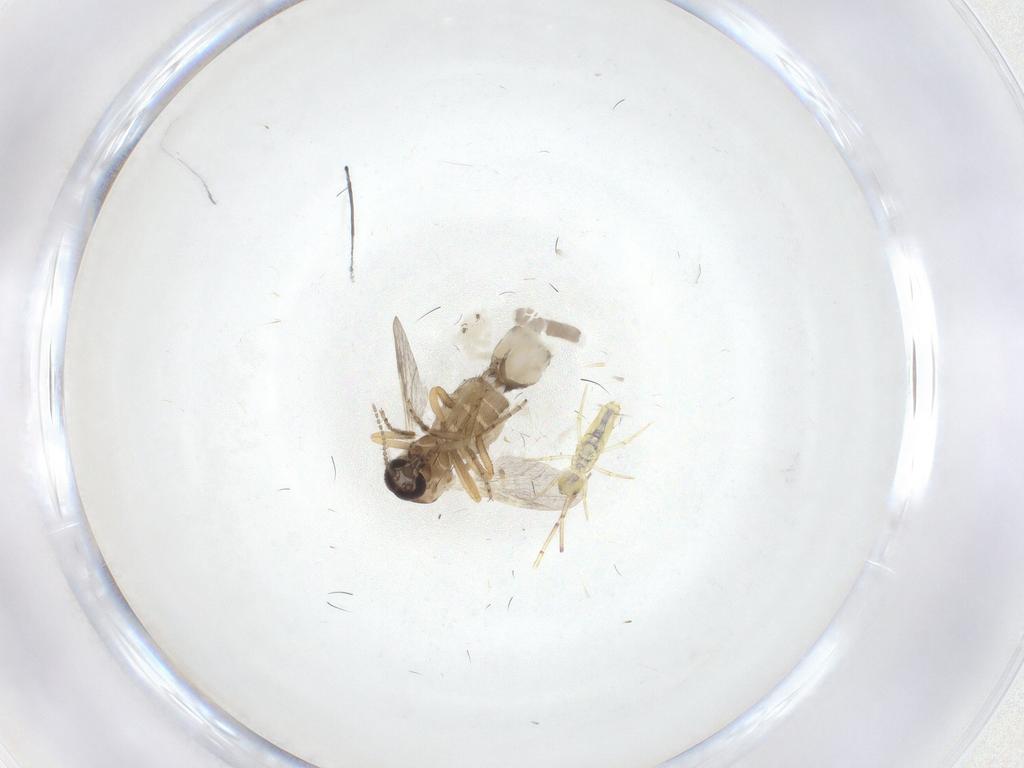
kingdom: Animalia
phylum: Arthropoda
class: Insecta
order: Diptera
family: Ceratopogonidae
